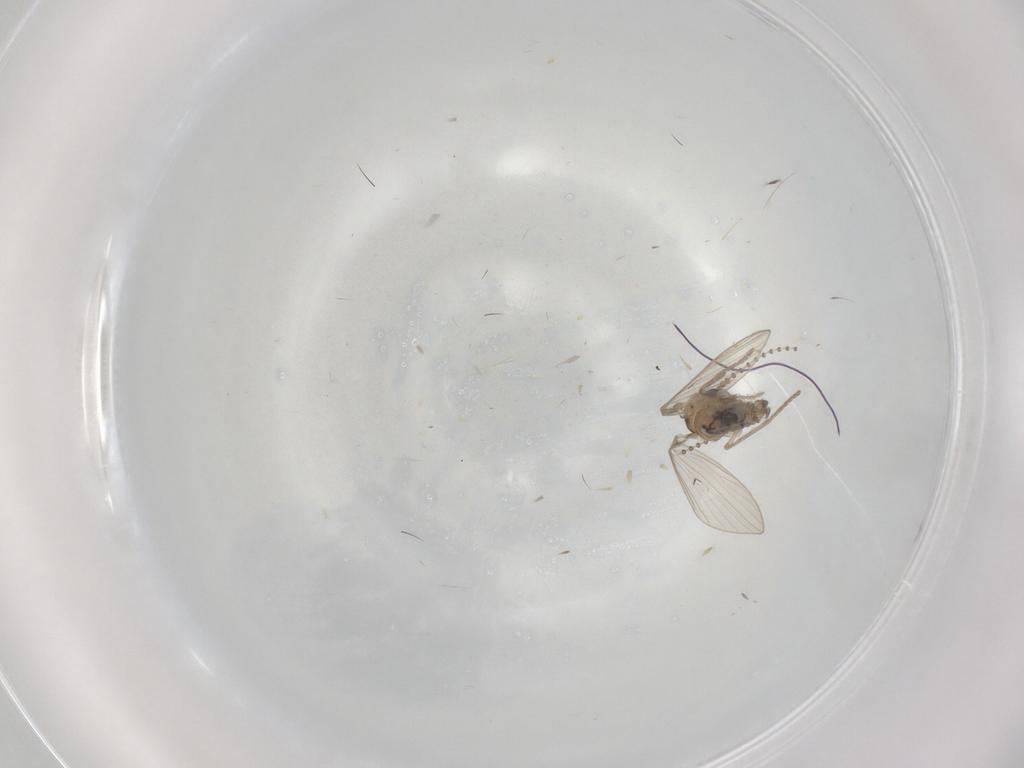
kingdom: Animalia
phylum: Arthropoda
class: Insecta
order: Diptera
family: Psychodidae
